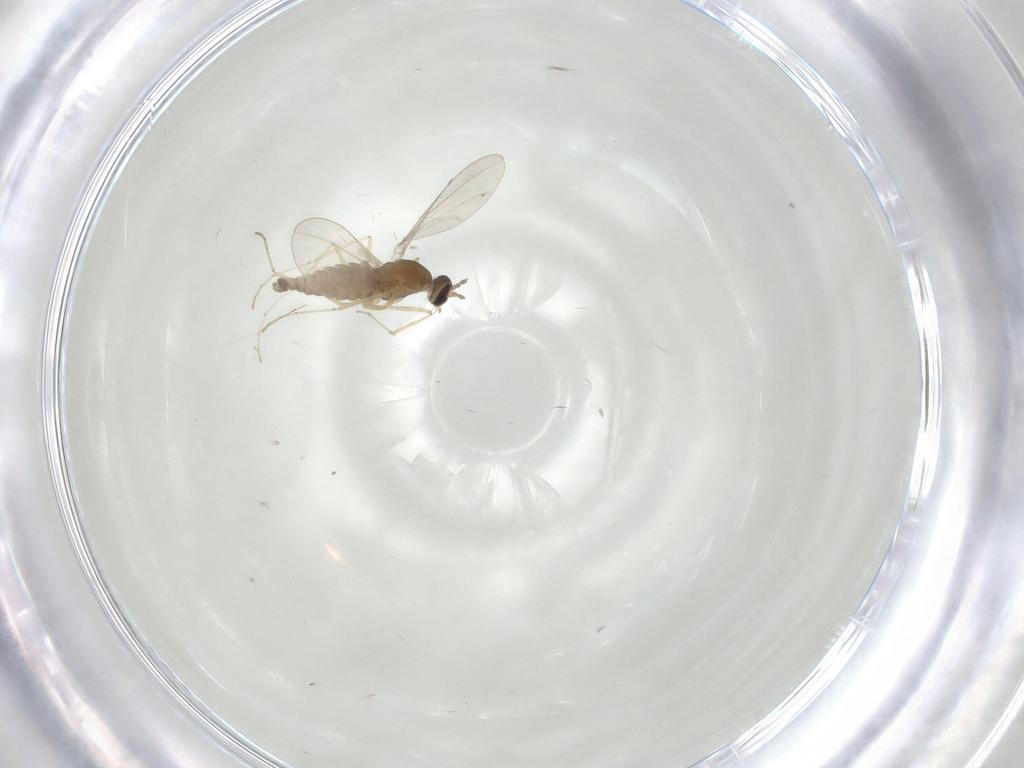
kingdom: Animalia
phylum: Arthropoda
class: Insecta
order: Diptera
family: Cecidomyiidae
